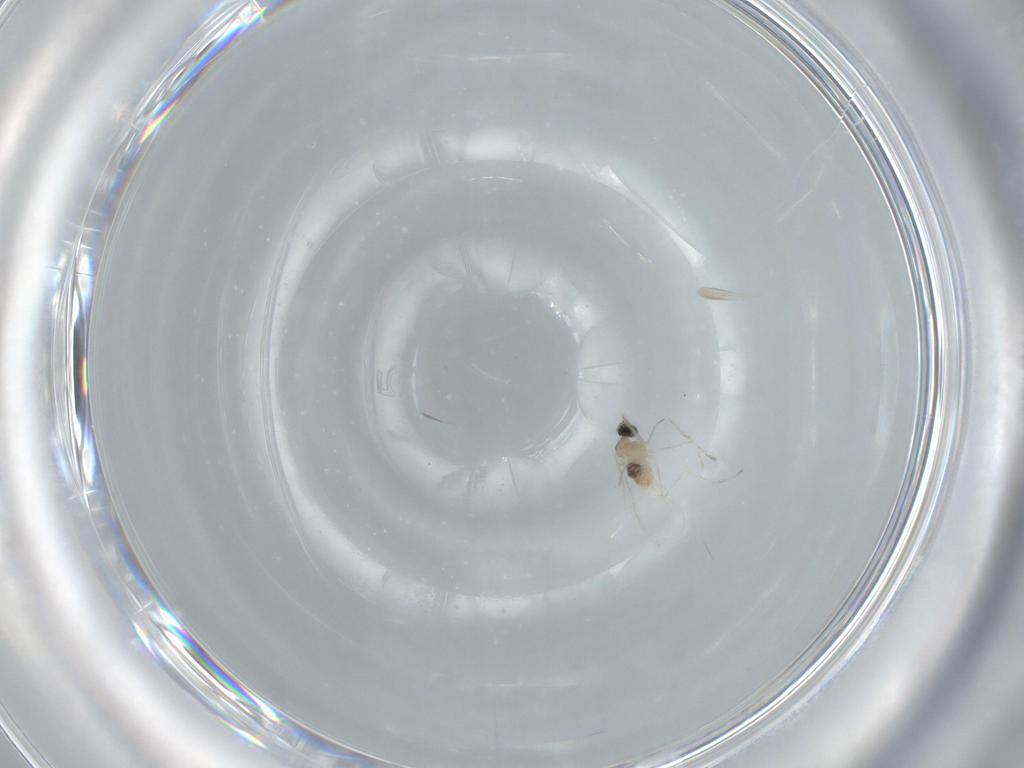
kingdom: Animalia
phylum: Arthropoda
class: Insecta
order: Diptera
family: Cecidomyiidae
